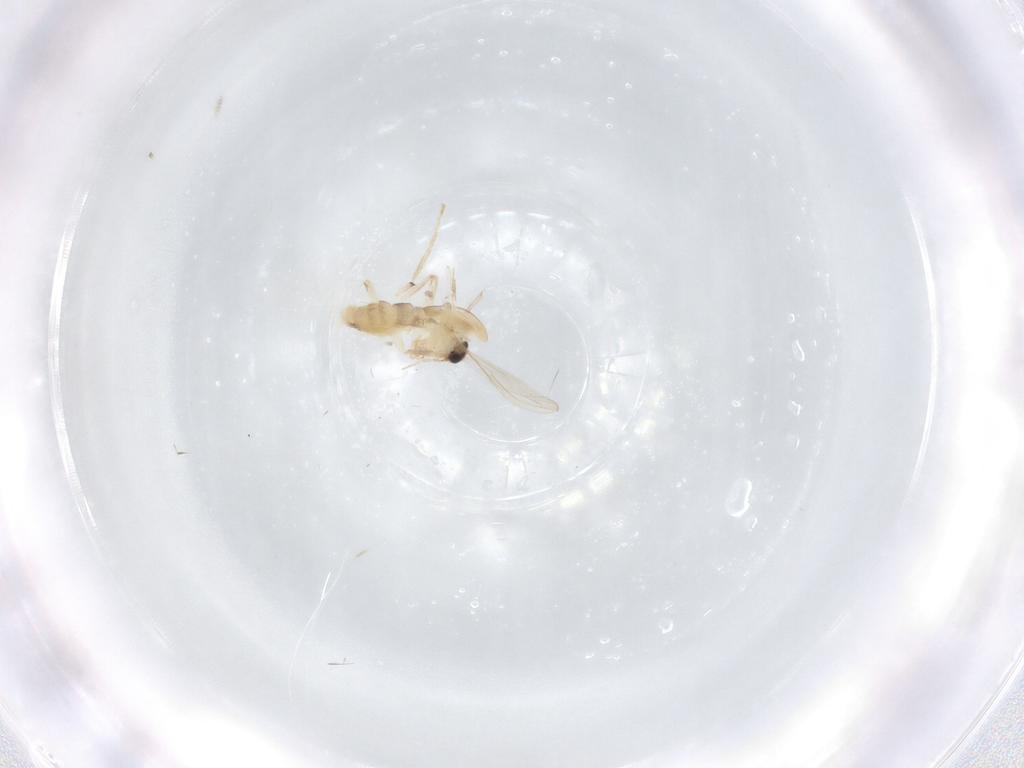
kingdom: Animalia
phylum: Arthropoda
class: Insecta
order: Diptera
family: Chironomidae
